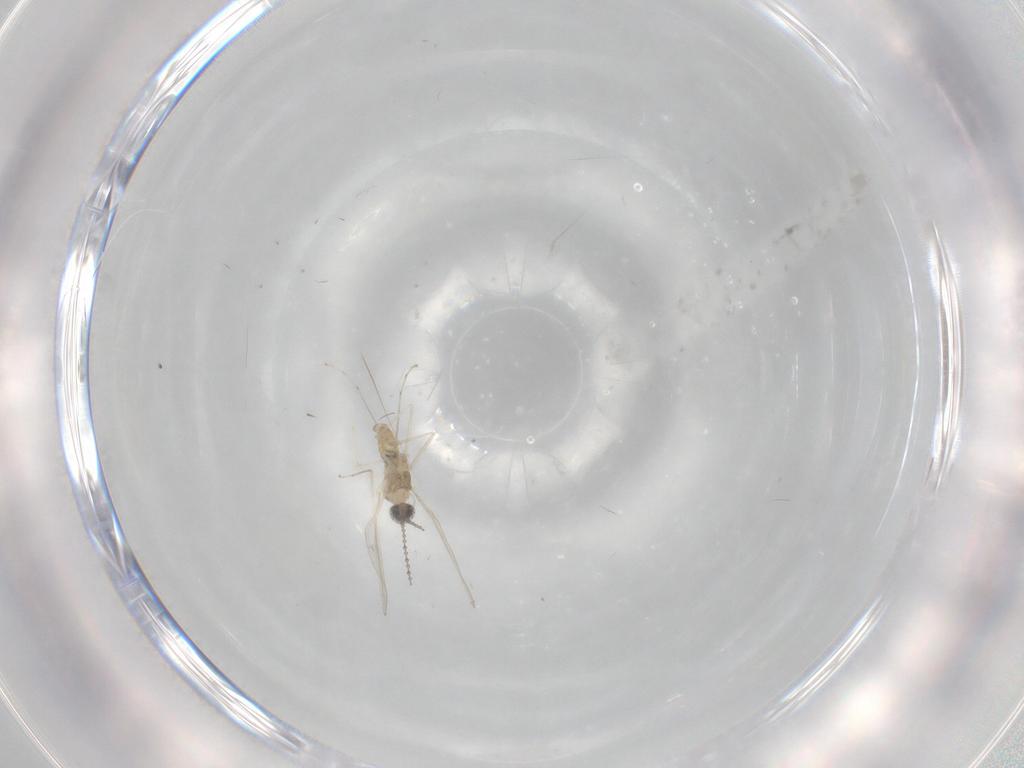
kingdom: Animalia
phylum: Arthropoda
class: Insecta
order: Diptera
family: Cecidomyiidae
